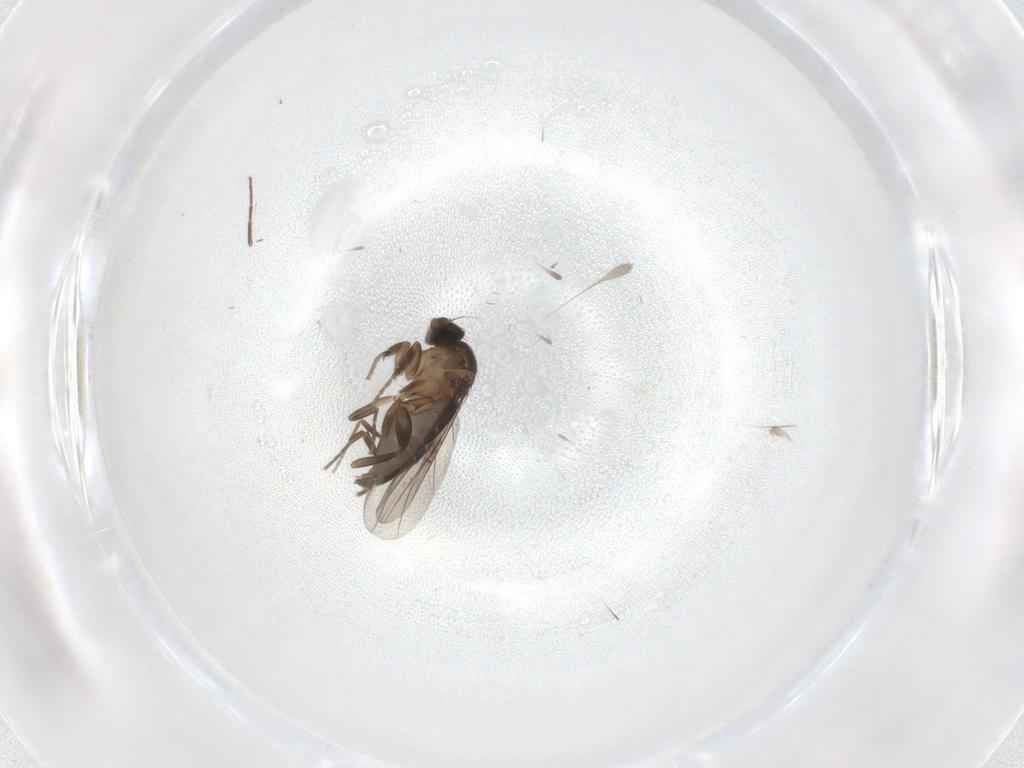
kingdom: Animalia
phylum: Arthropoda
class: Insecta
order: Diptera
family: Phoridae
